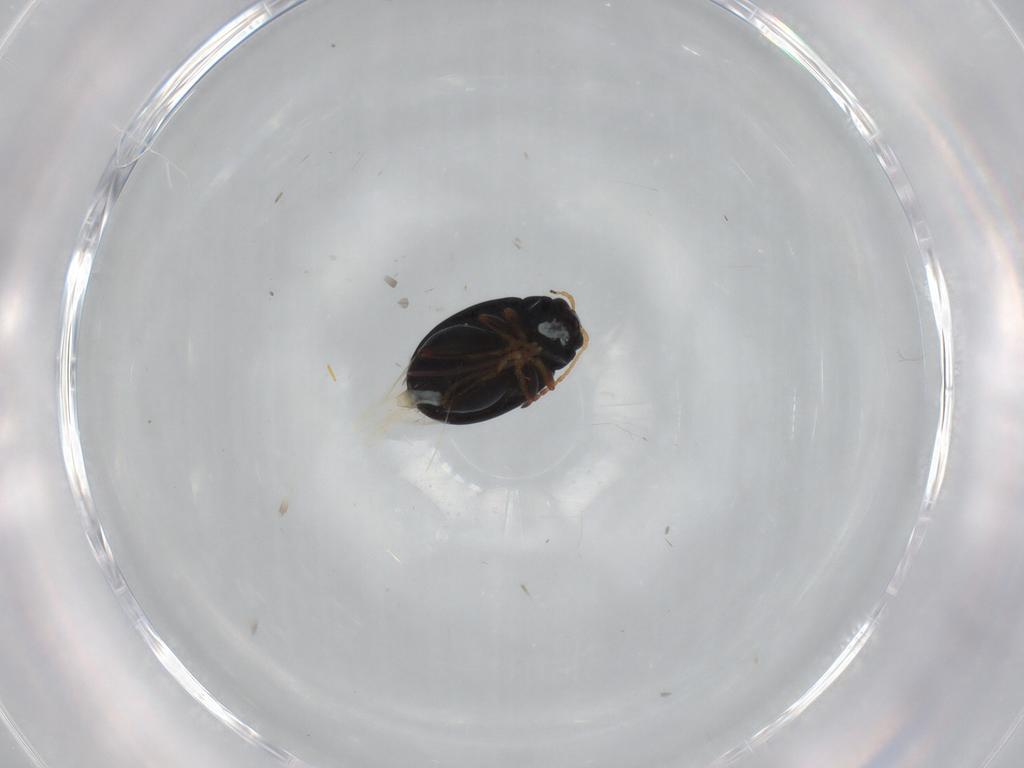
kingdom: Animalia
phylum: Arthropoda
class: Insecta
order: Coleoptera
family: Chrysomelidae
